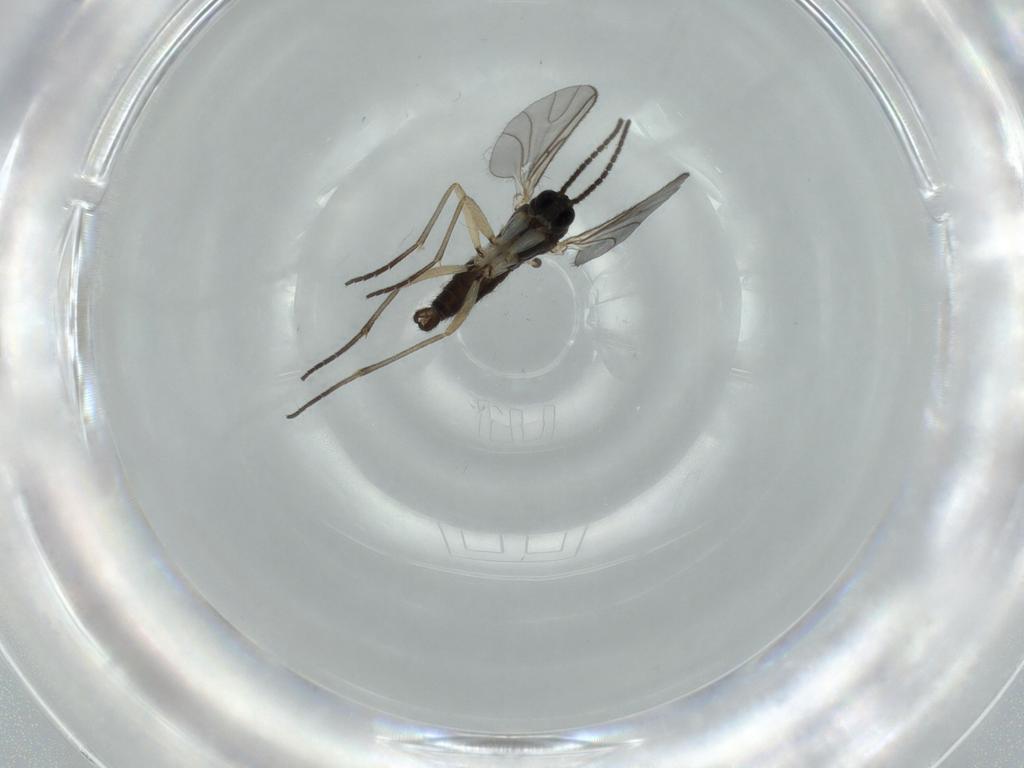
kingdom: Animalia
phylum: Arthropoda
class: Insecta
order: Diptera
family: Sciaridae
